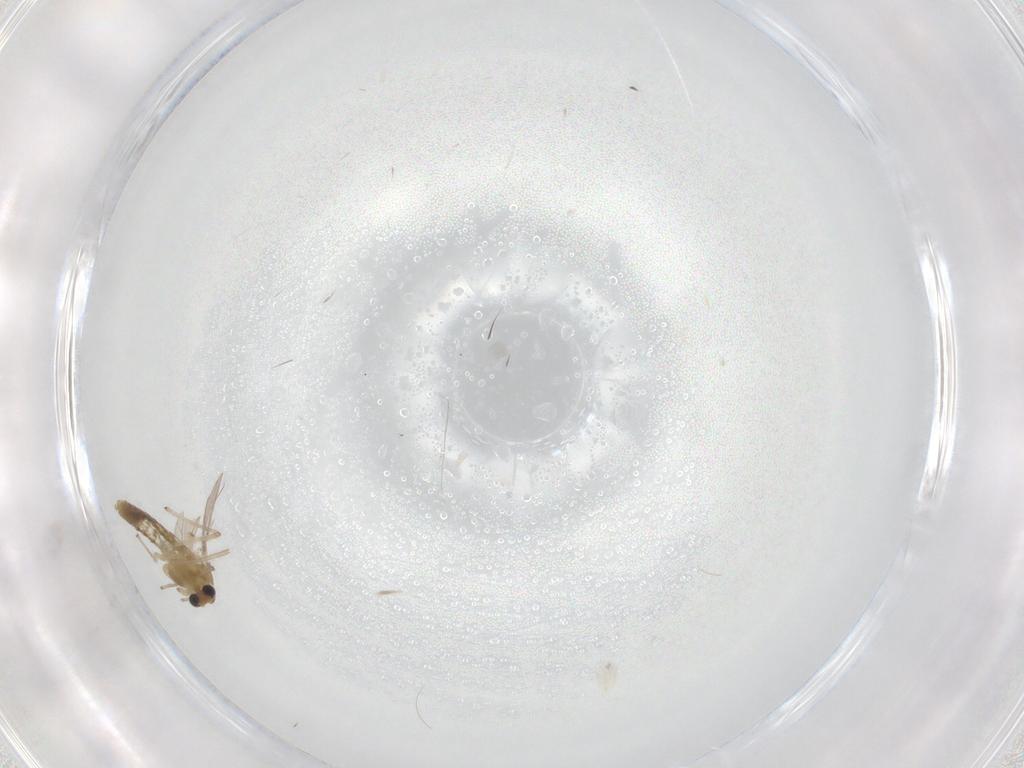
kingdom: Animalia
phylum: Arthropoda
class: Insecta
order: Diptera
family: Chironomidae
